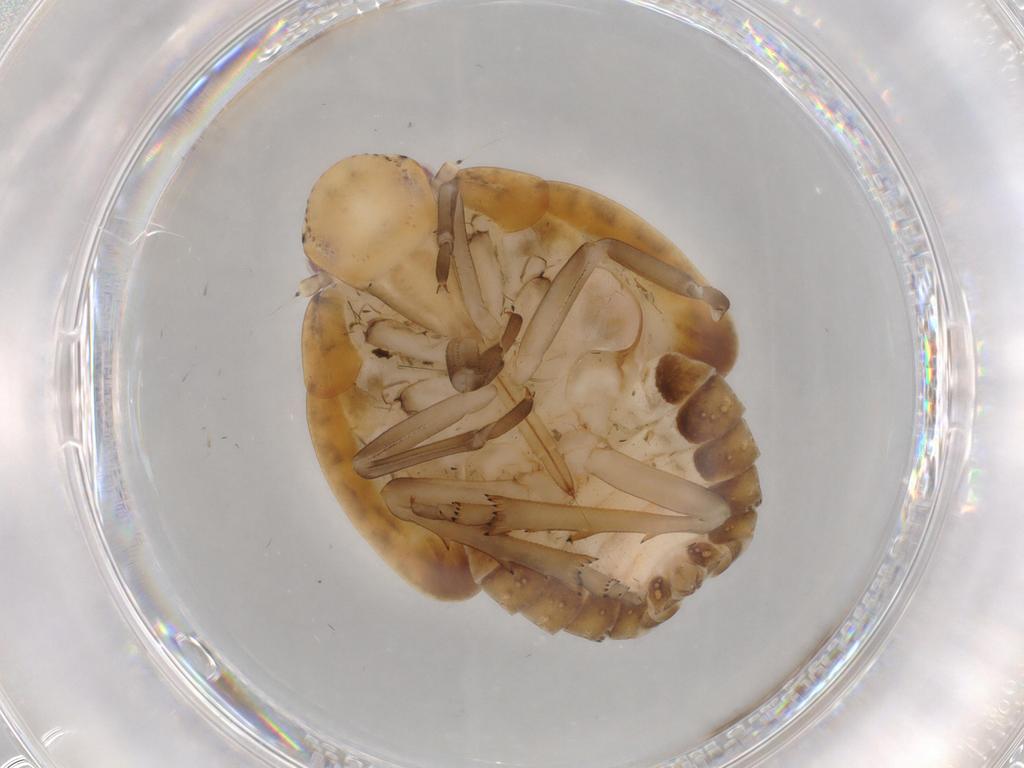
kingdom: Animalia
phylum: Arthropoda
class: Insecta
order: Hemiptera
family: Flatidae
